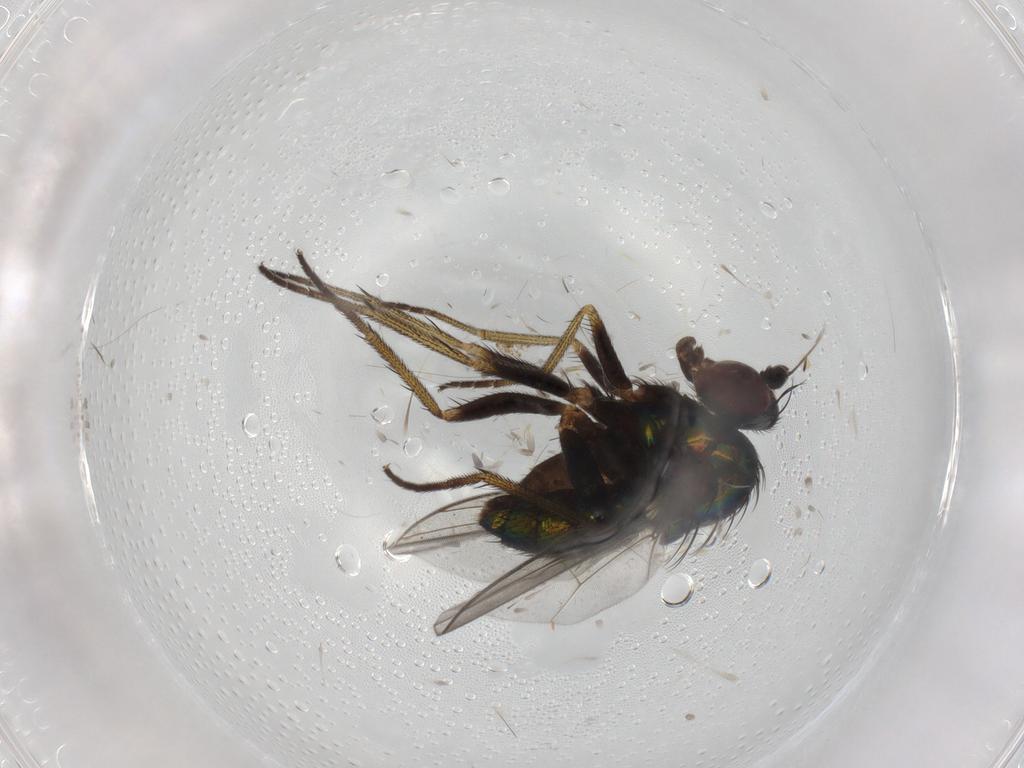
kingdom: Animalia
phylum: Arthropoda
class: Insecta
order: Diptera
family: Dolichopodidae
